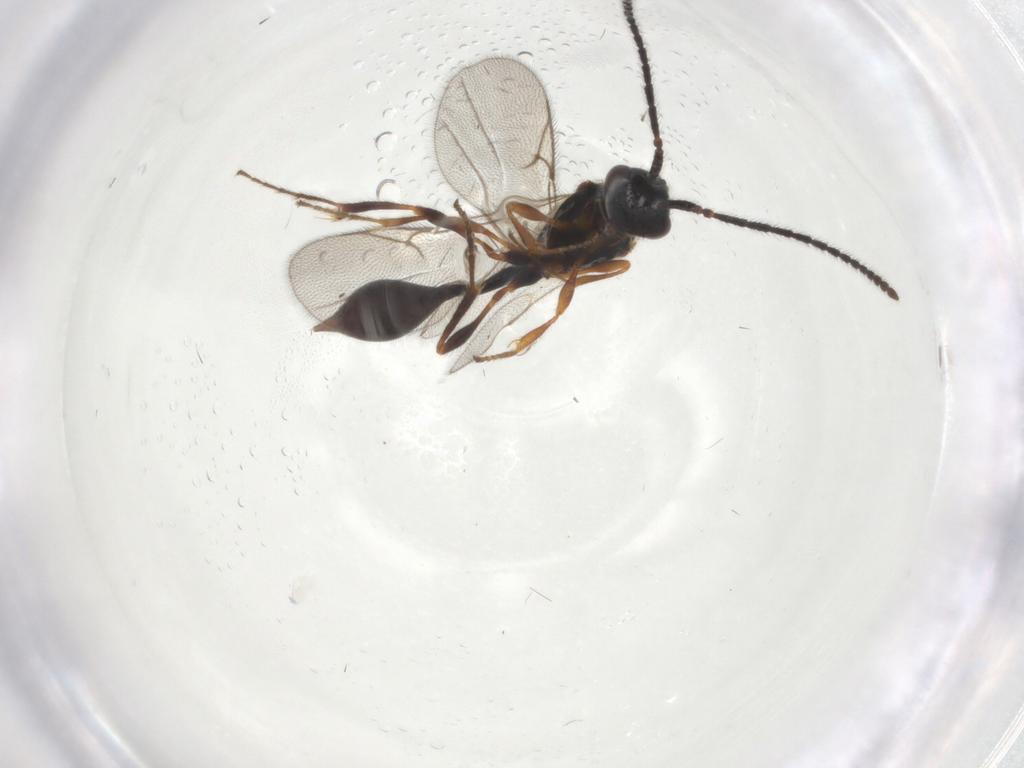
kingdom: Animalia
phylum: Arthropoda
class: Insecta
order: Hymenoptera
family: Diapriidae
